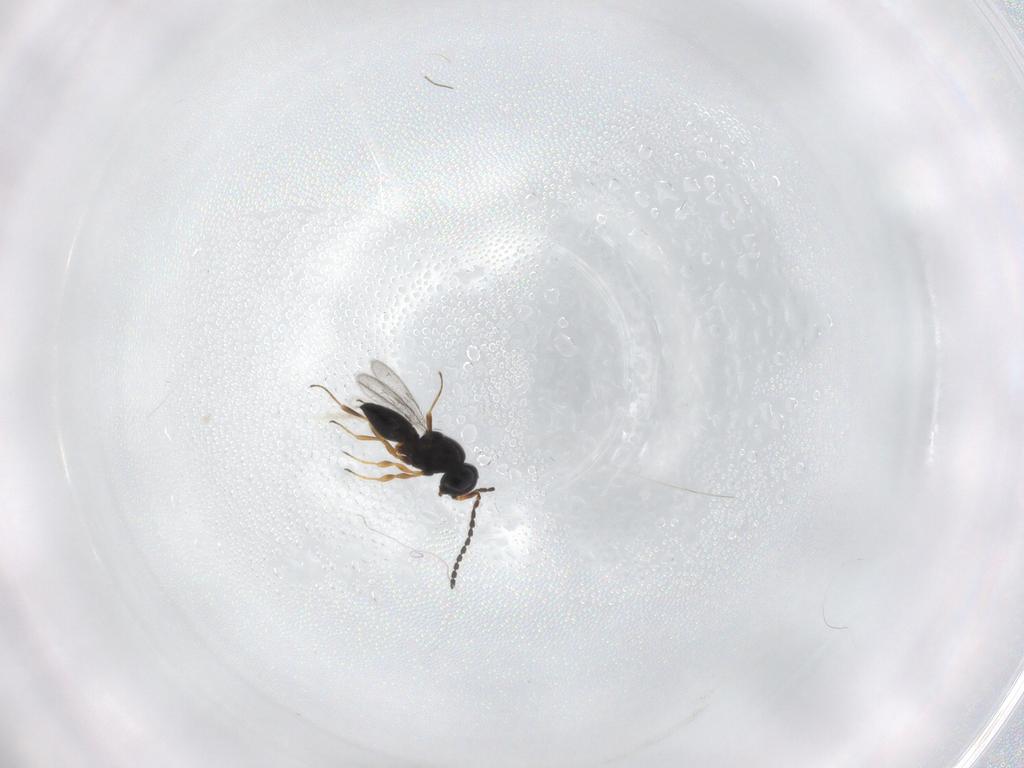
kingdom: Animalia
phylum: Arthropoda
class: Insecta
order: Hymenoptera
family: Scelionidae
